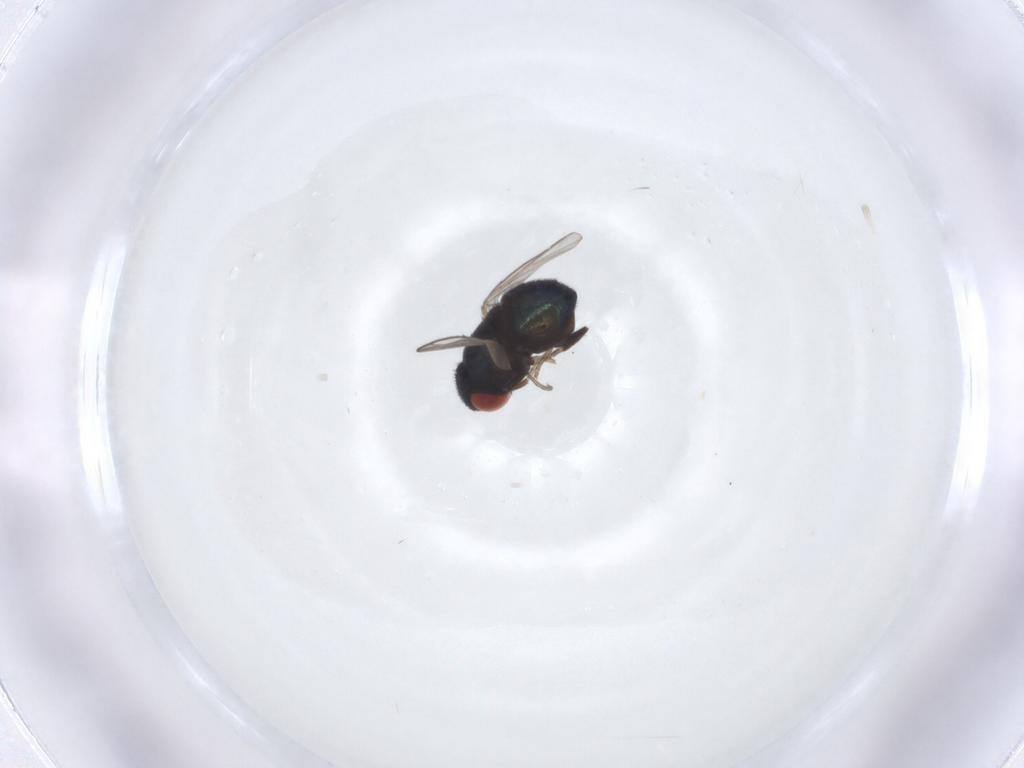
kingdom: Animalia
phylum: Arthropoda
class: Insecta
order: Diptera
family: Cryptochetidae
